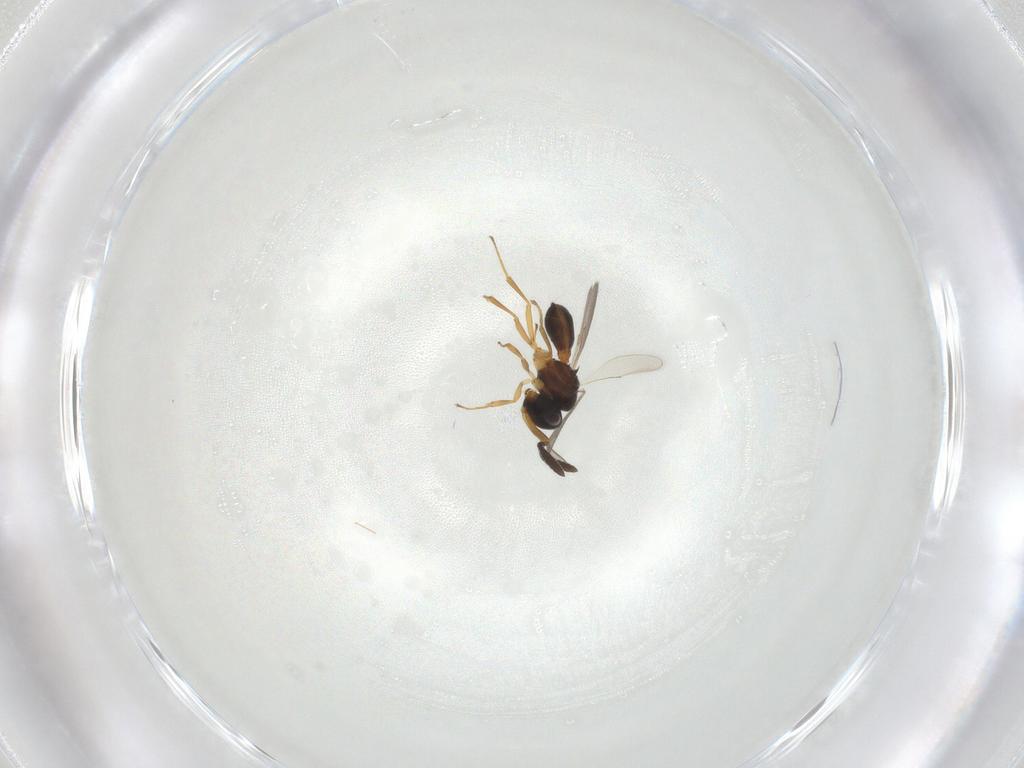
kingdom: Animalia
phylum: Arthropoda
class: Insecta
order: Hymenoptera
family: Scelionidae
